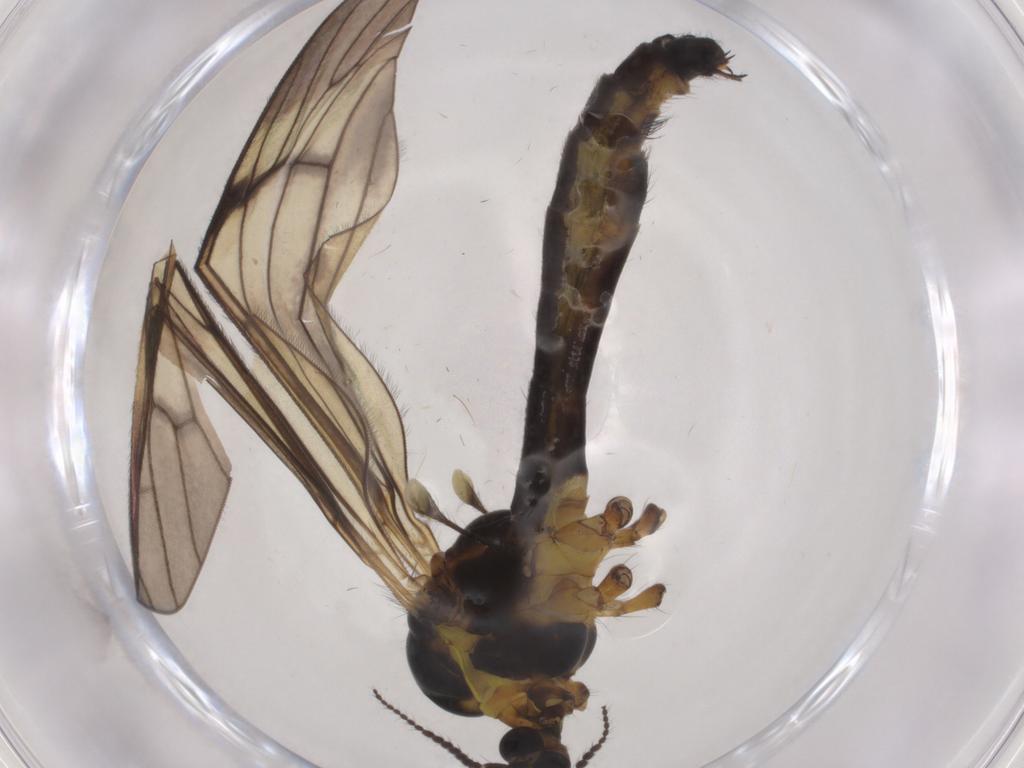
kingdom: Animalia
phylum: Arthropoda
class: Insecta
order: Diptera
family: Limoniidae
